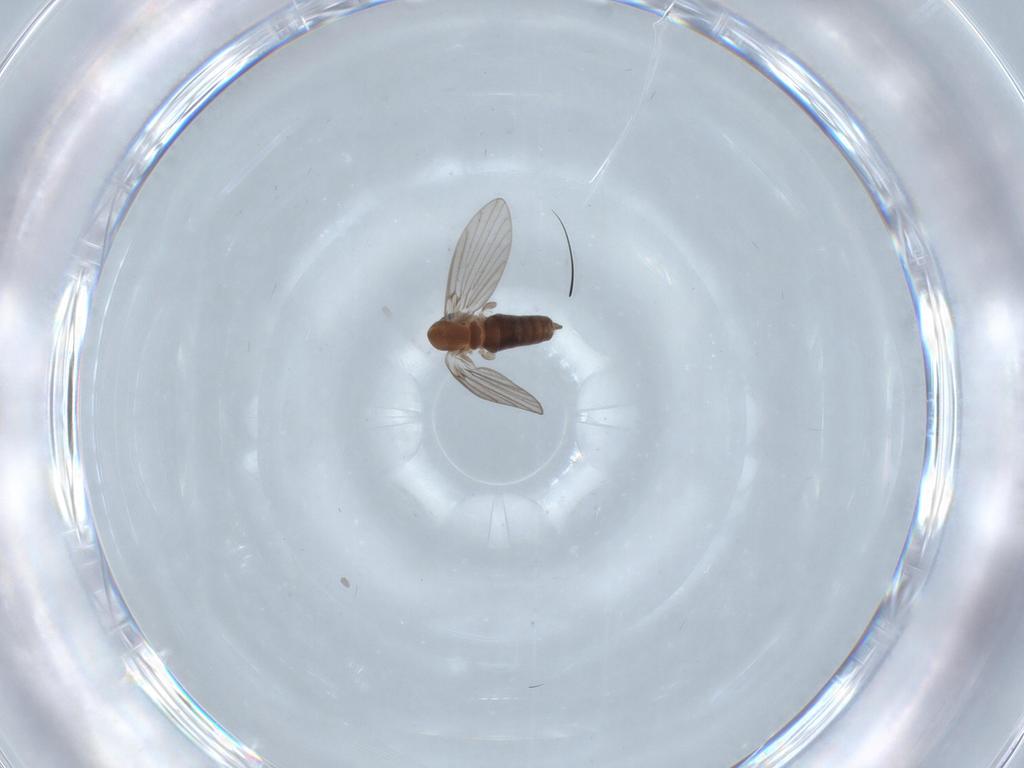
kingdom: Animalia
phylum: Arthropoda
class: Insecta
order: Diptera
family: Psychodidae
